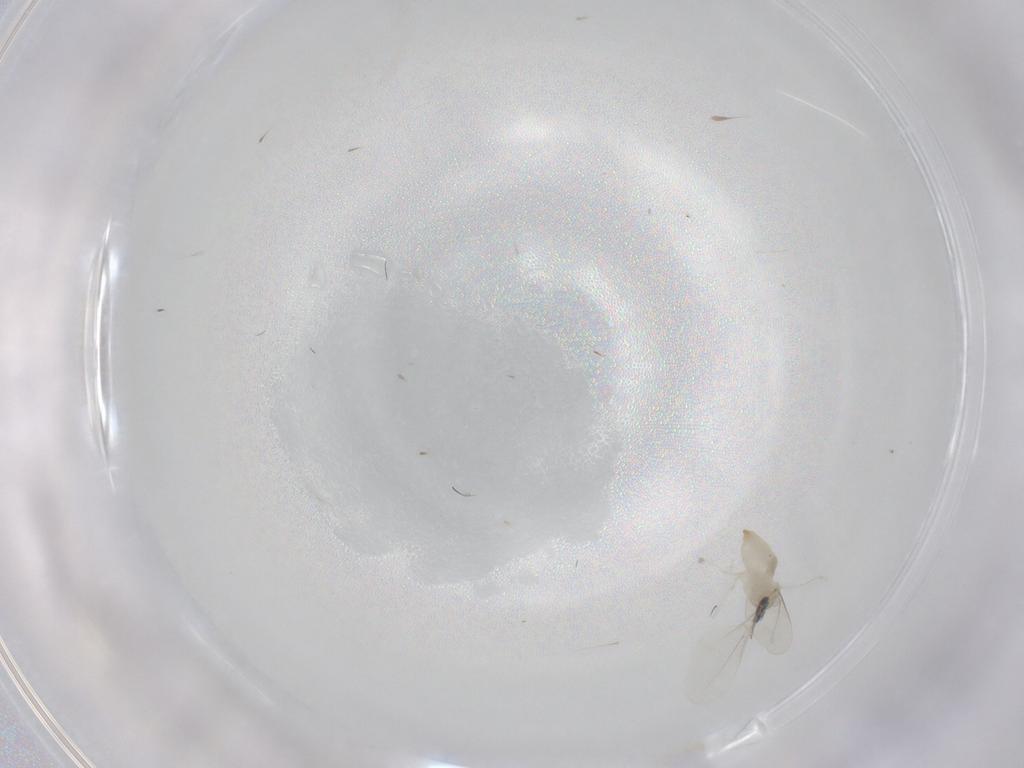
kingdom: Animalia
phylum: Arthropoda
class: Insecta
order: Diptera
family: Cecidomyiidae
